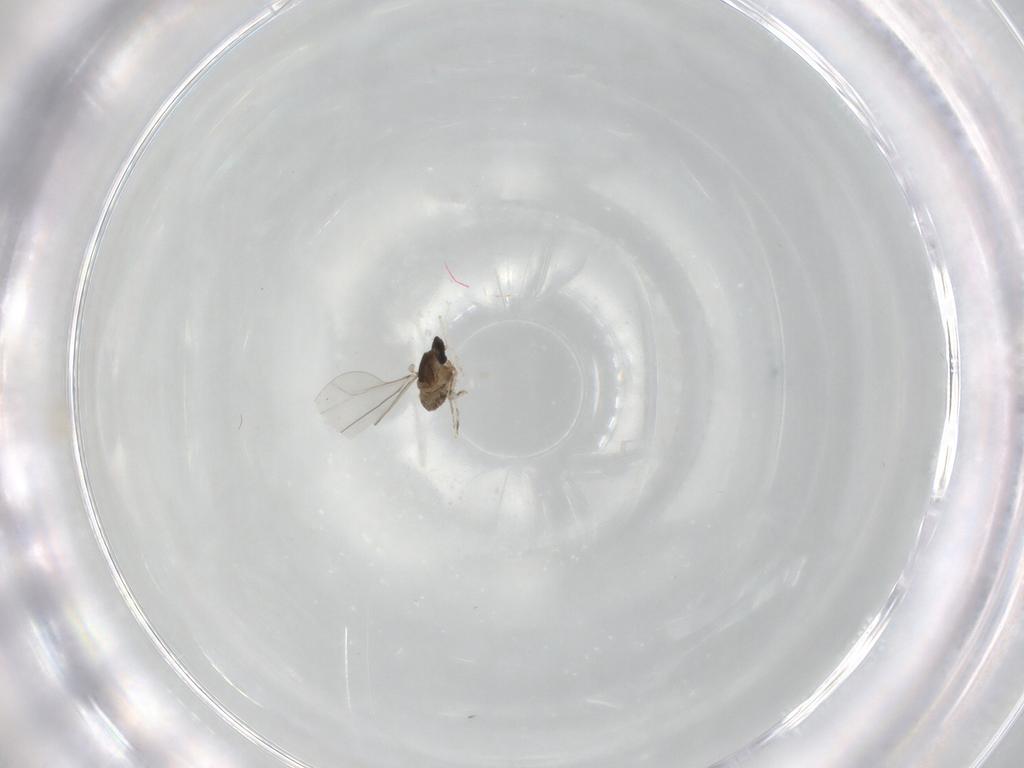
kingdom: Animalia
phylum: Arthropoda
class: Insecta
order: Diptera
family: Cecidomyiidae
